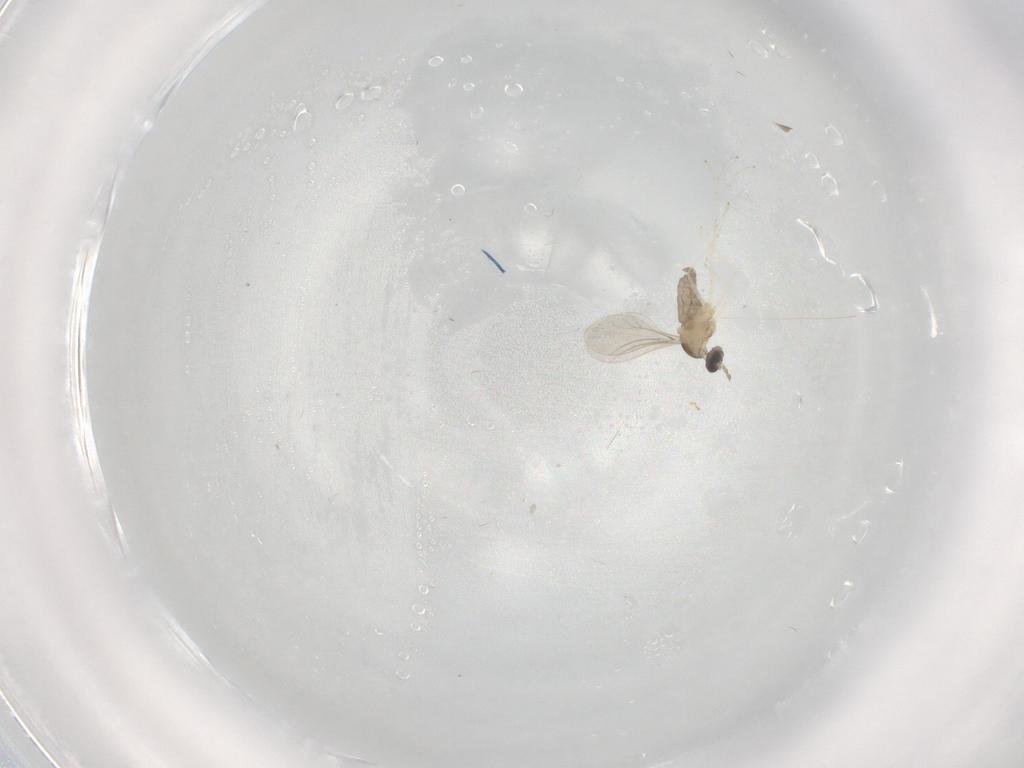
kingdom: Animalia
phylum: Arthropoda
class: Insecta
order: Diptera
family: Cecidomyiidae
